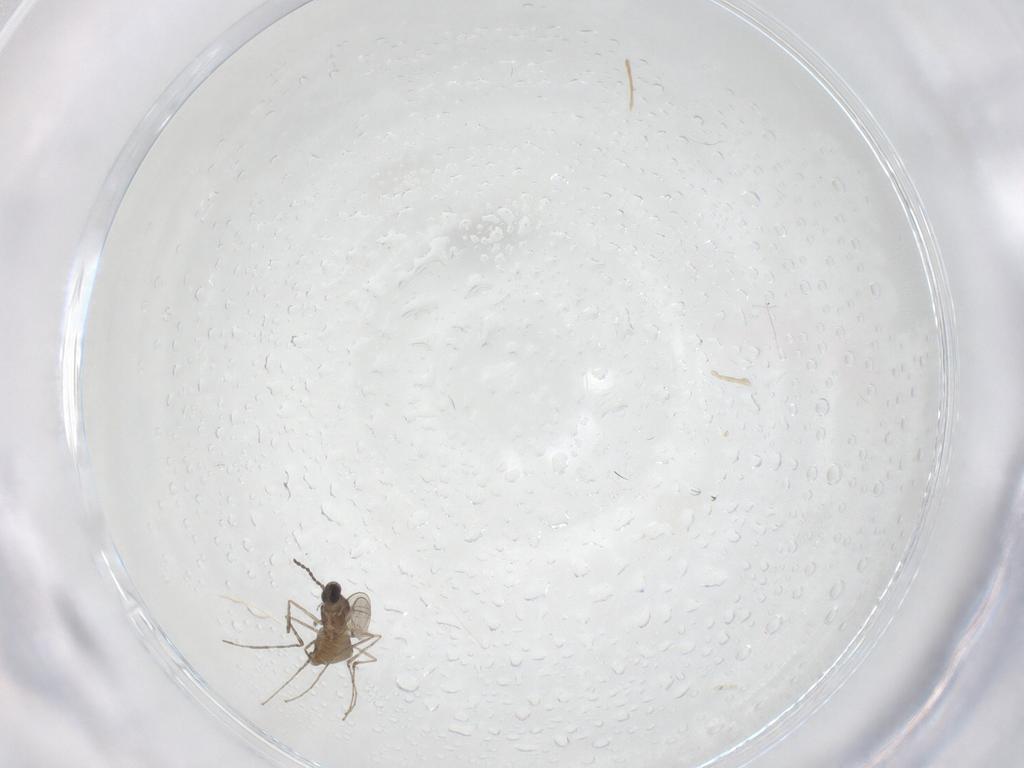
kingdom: Animalia
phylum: Arthropoda
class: Insecta
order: Diptera
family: Cecidomyiidae
